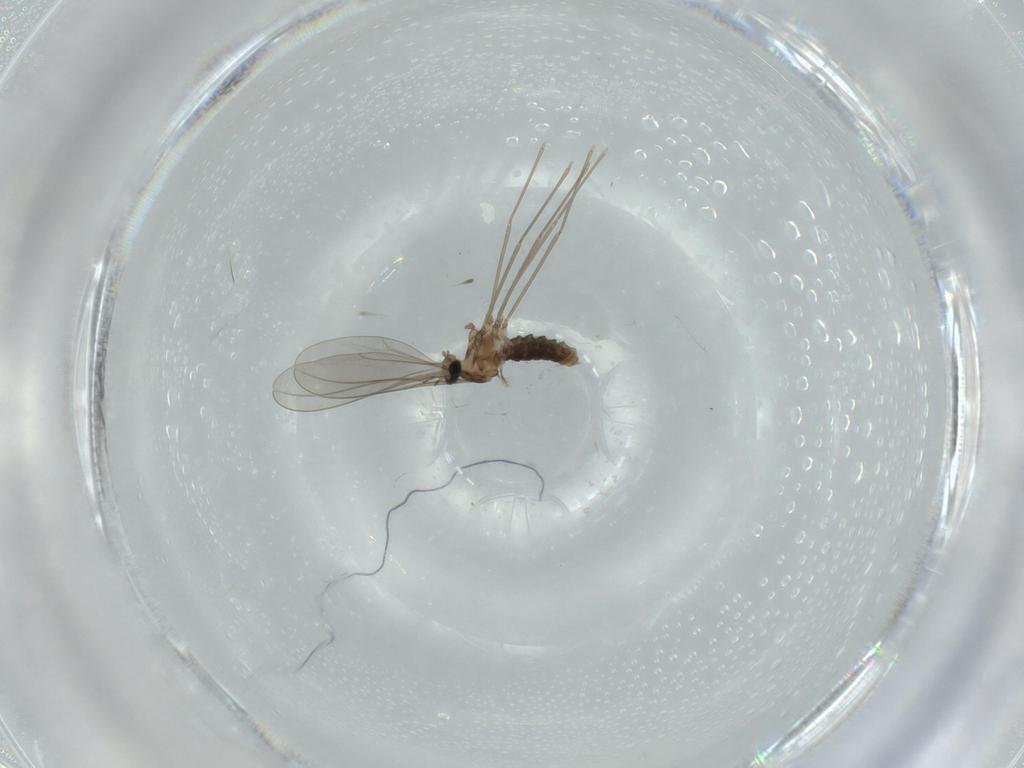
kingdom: Animalia
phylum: Arthropoda
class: Insecta
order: Diptera
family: Cecidomyiidae
